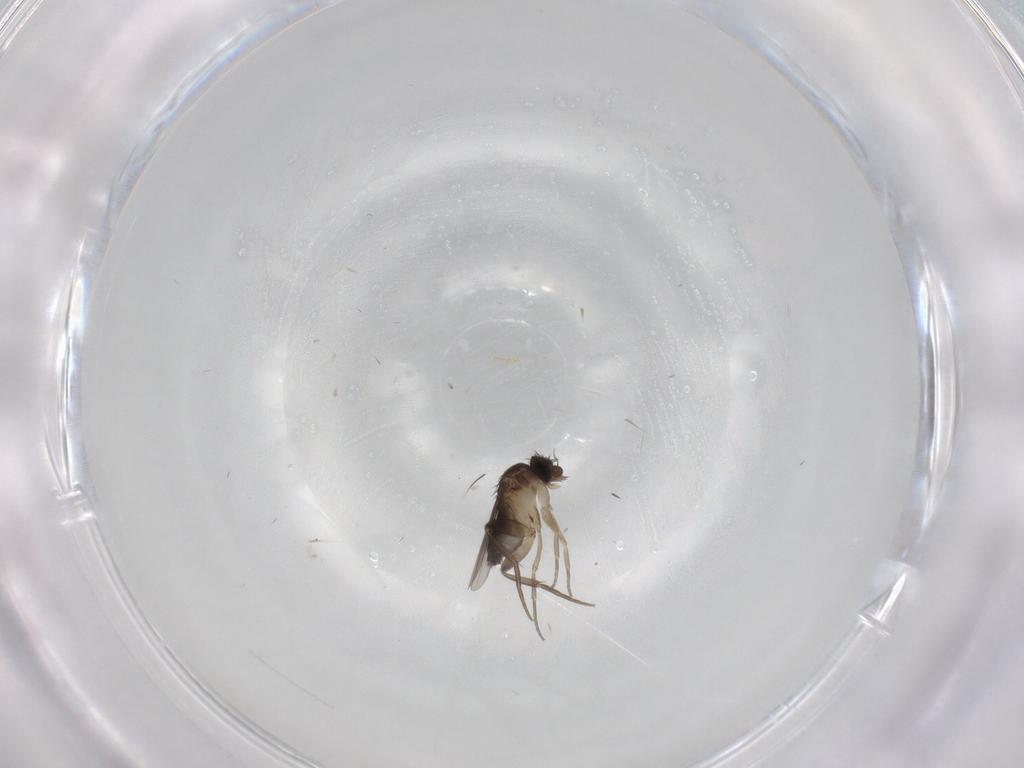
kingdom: Animalia
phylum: Arthropoda
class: Insecta
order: Diptera
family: Phoridae
